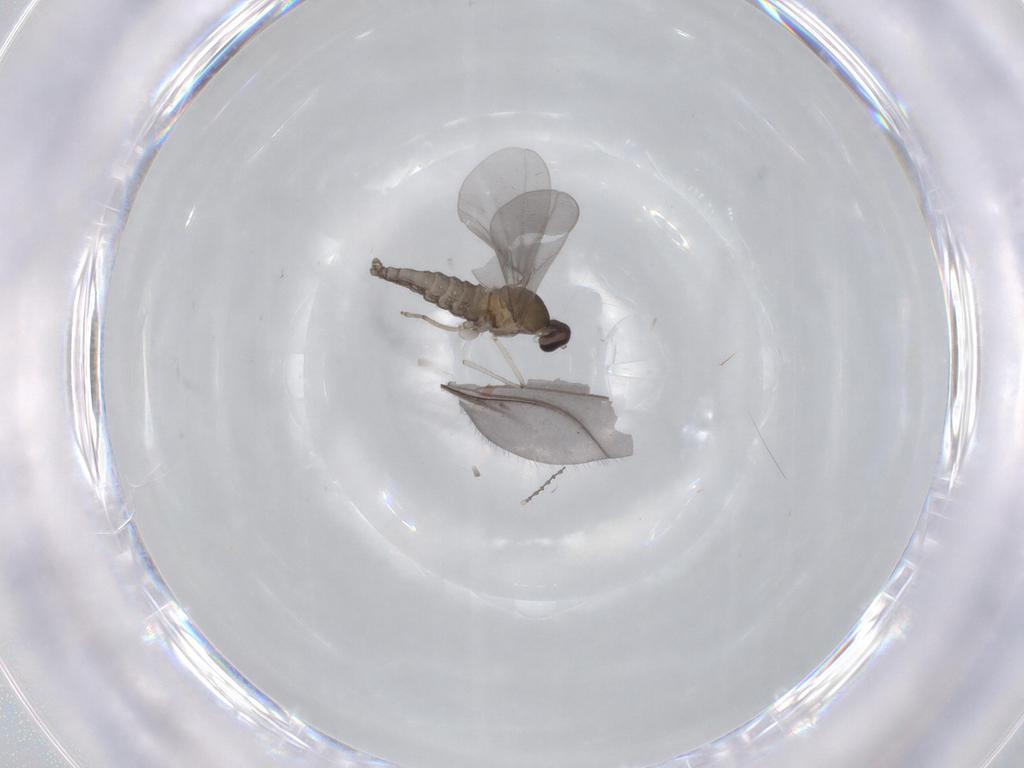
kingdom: Animalia
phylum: Arthropoda
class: Insecta
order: Diptera
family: Cecidomyiidae
